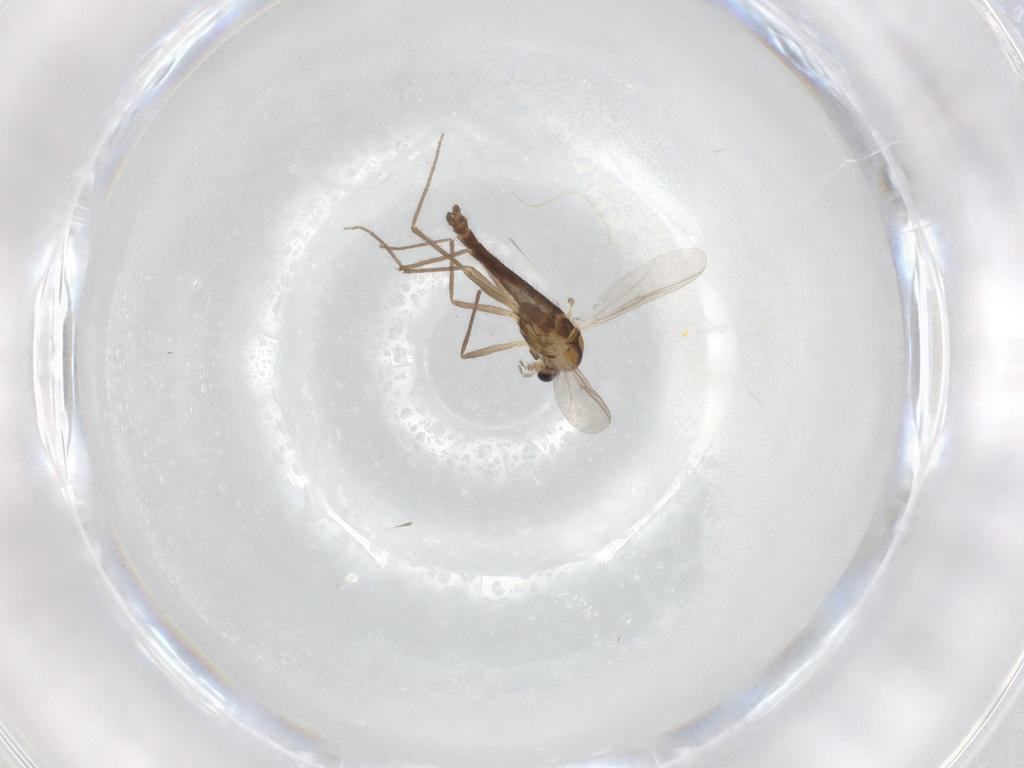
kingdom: Animalia
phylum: Arthropoda
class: Insecta
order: Diptera
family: Chironomidae
